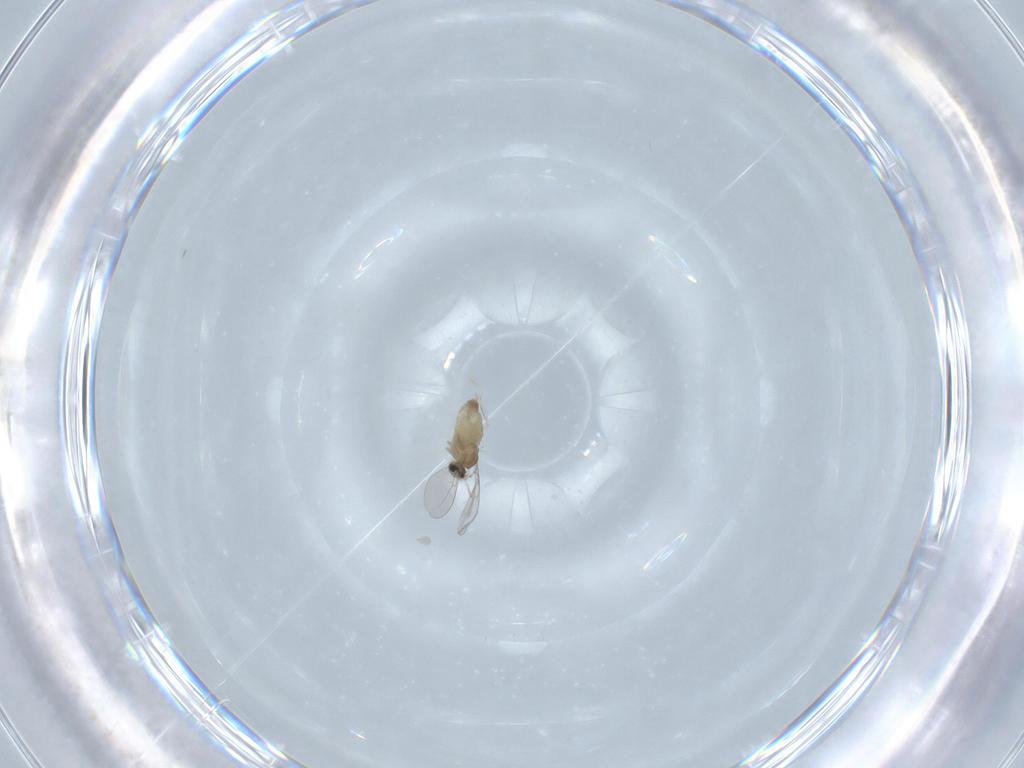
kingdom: Animalia
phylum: Arthropoda
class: Insecta
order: Diptera
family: Cecidomyiidae
